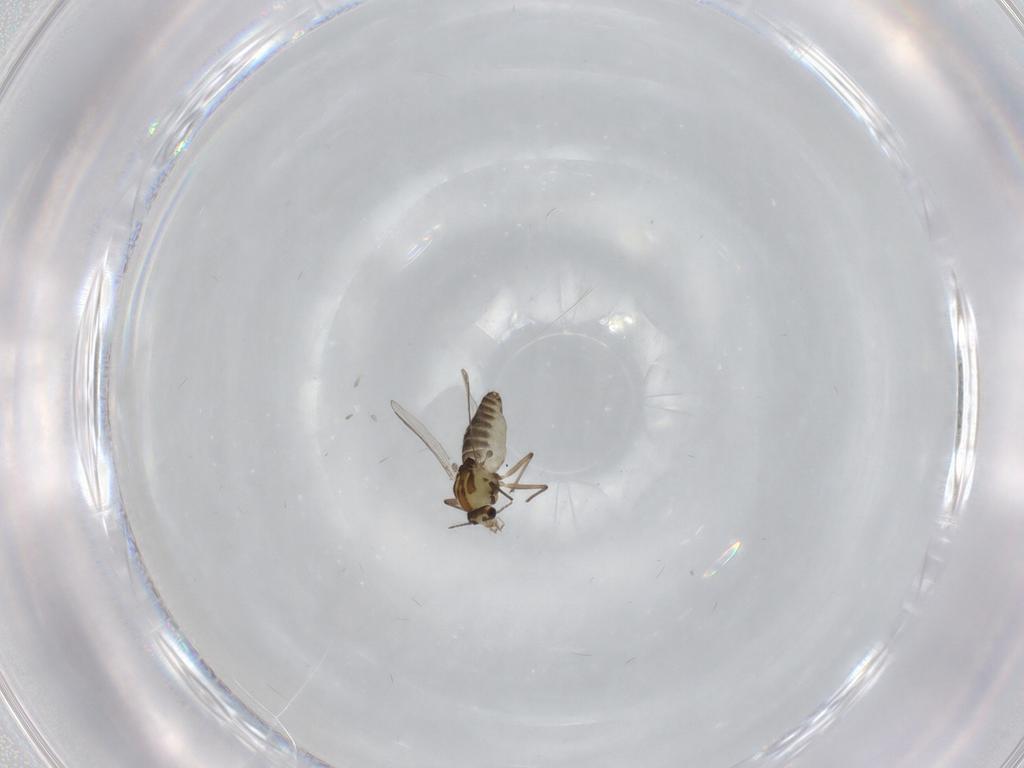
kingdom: Animalia
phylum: Arthropoda
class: Insecta
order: Diptera
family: Chironomidae
